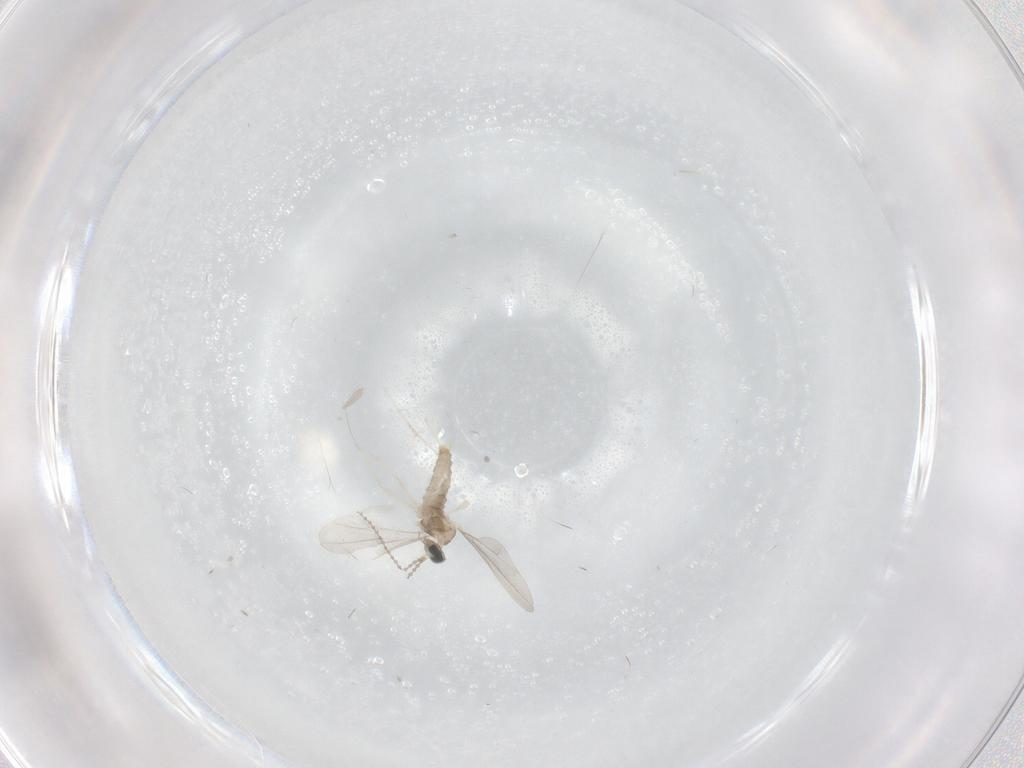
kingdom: Animalia
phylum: Arthropoda
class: Insecta
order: Diptera
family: Cecidomyiidae
